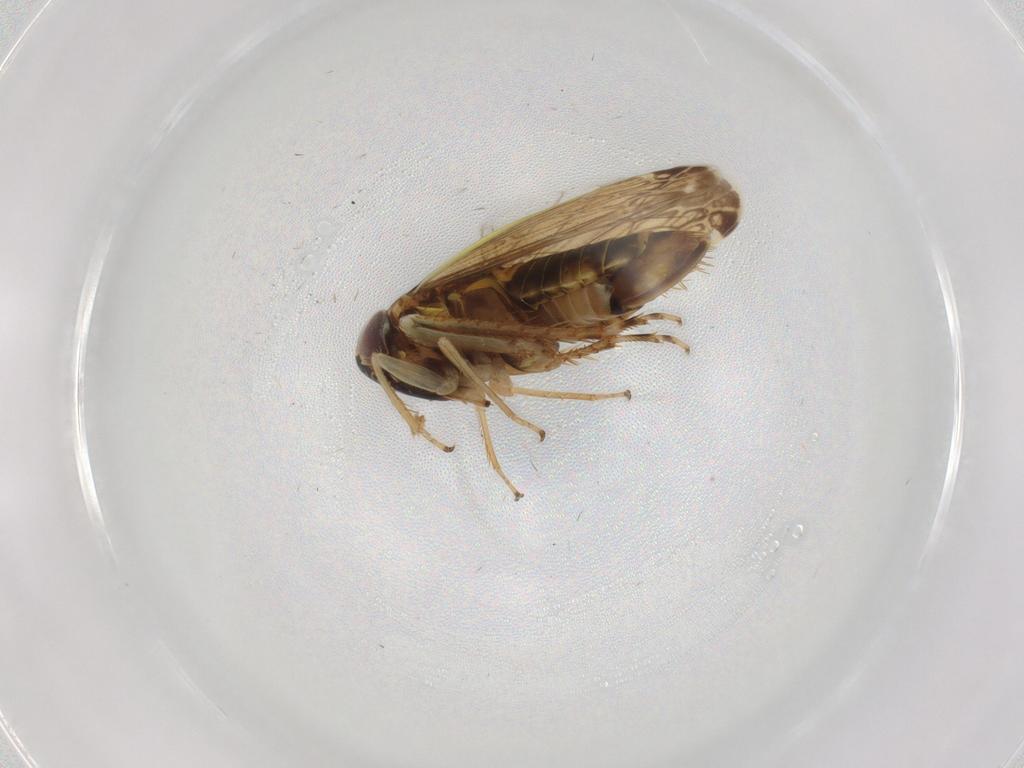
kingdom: Animalia
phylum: Arthropoda
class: Insecta
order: Hemiptera
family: Cicadellidae
